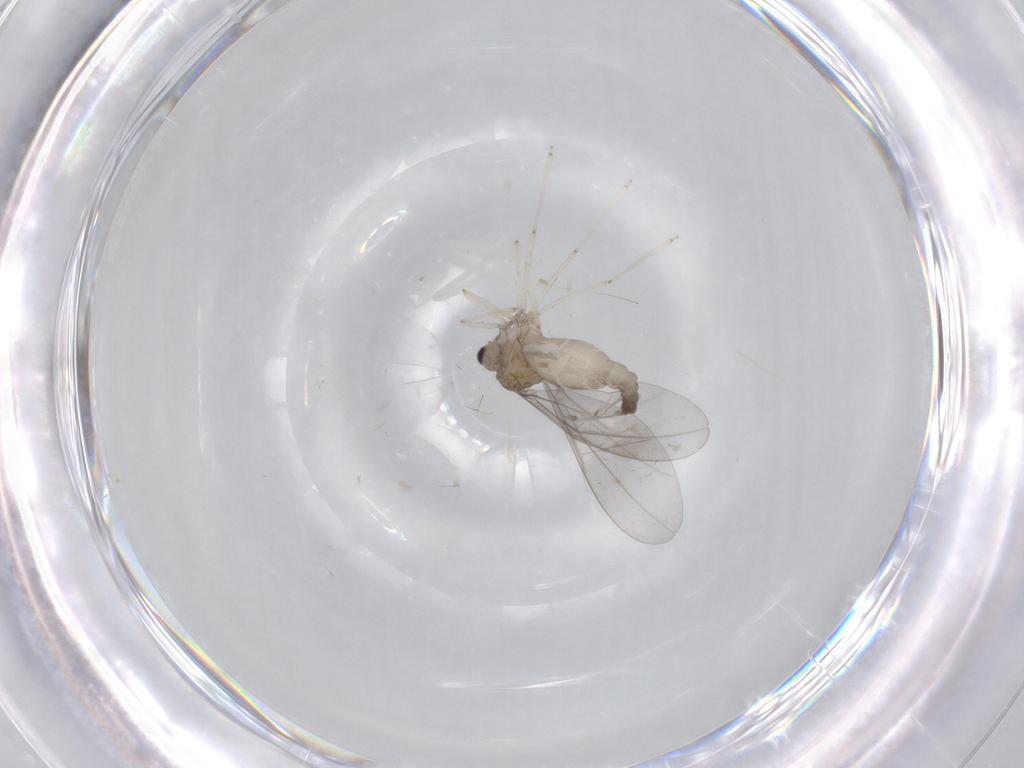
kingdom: Animalia
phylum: Arthropoda
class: Insecta
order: Diptera
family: Cecidomyiidae
